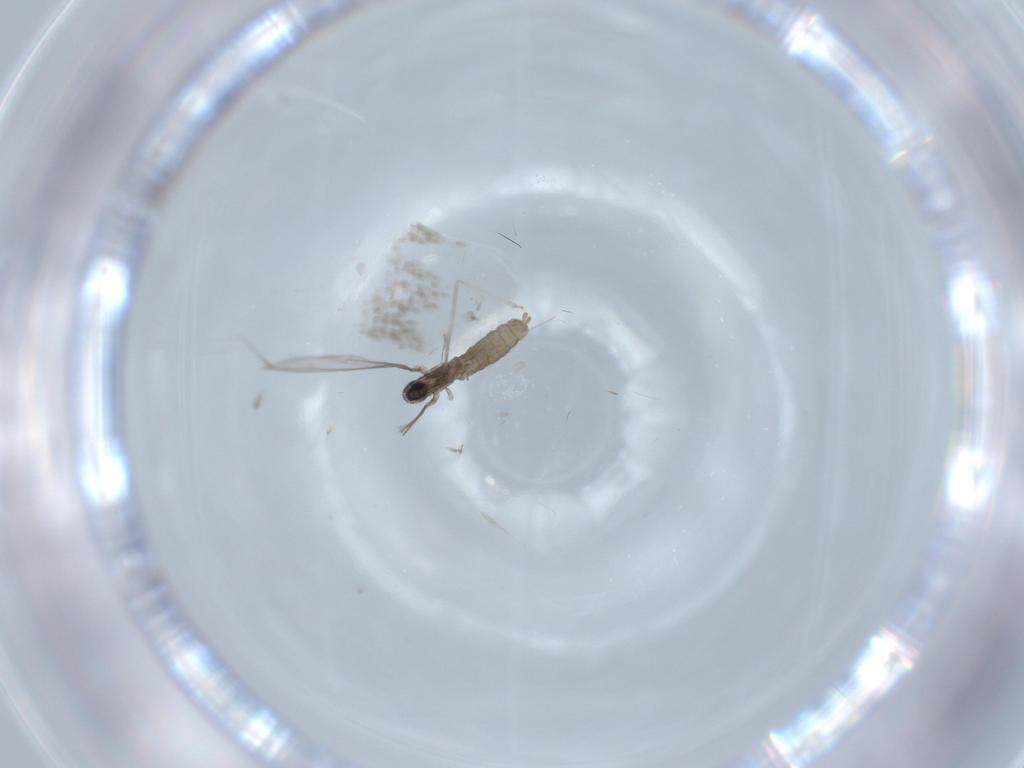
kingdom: Animalia
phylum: Arthropoda
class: Insecta
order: Diptera
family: Cecidomyiidae
